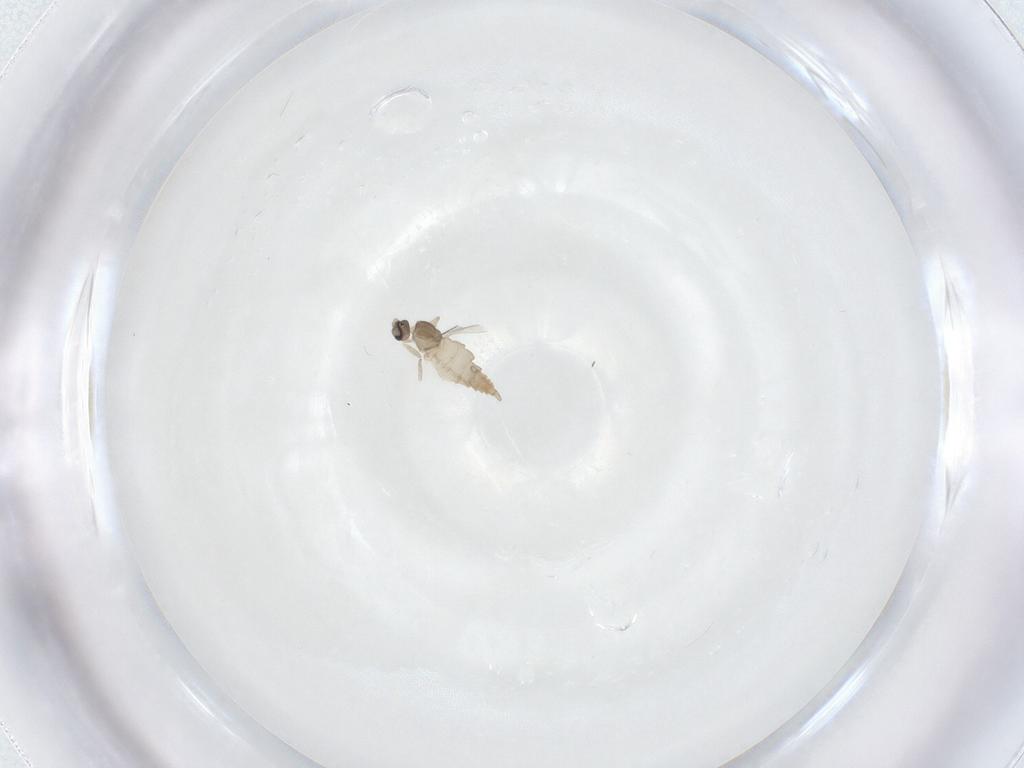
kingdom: Animalia
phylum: Arthropoda
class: Insecta
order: Diptera
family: Cecidomyiidae
